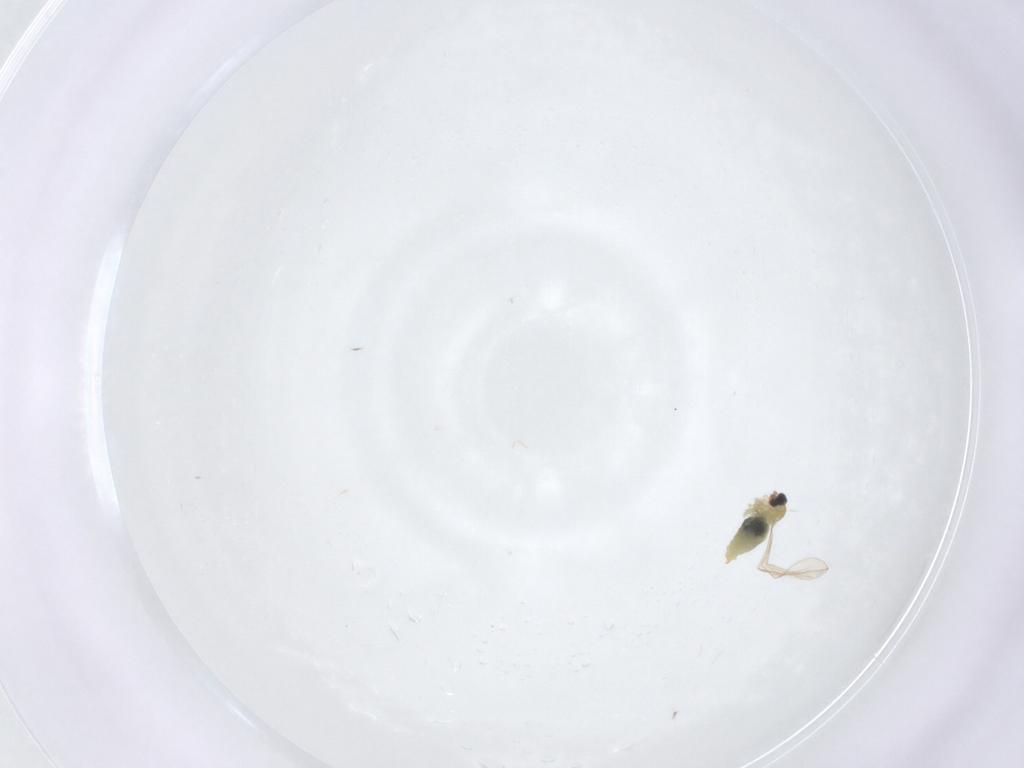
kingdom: Animalia
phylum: Arthropoda
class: Insecta
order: Diptera
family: Cecidomyiidae
